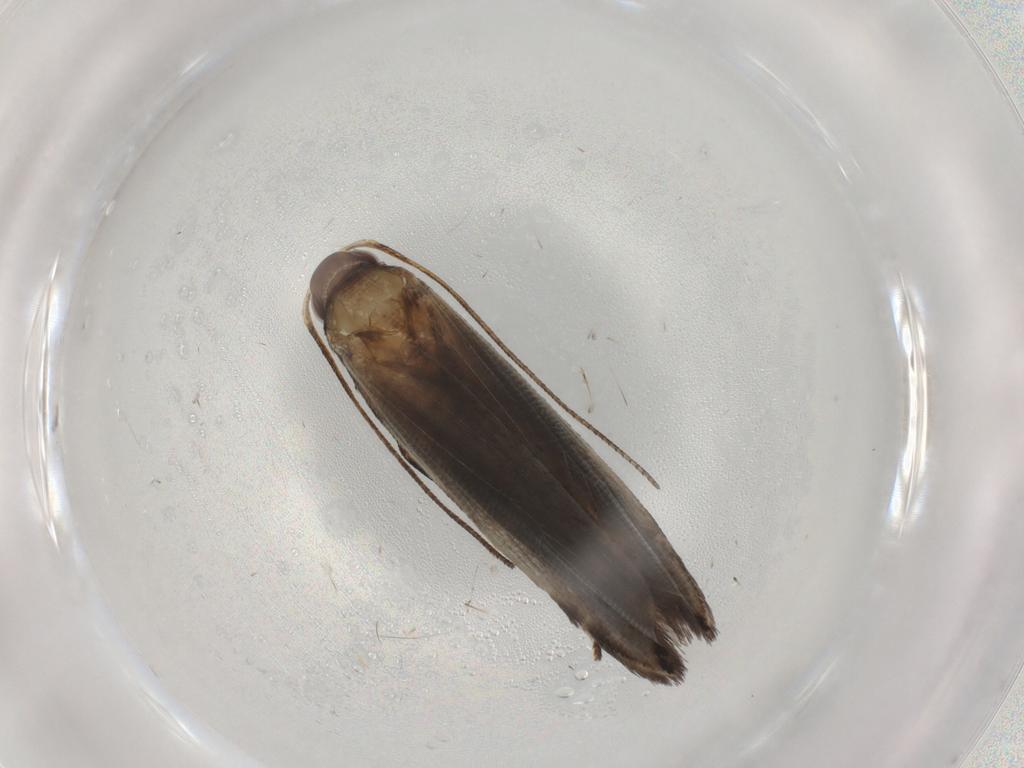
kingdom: Animalia
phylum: Arthropoda
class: Insecta
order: Lepidoptera
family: Gelechiidae
